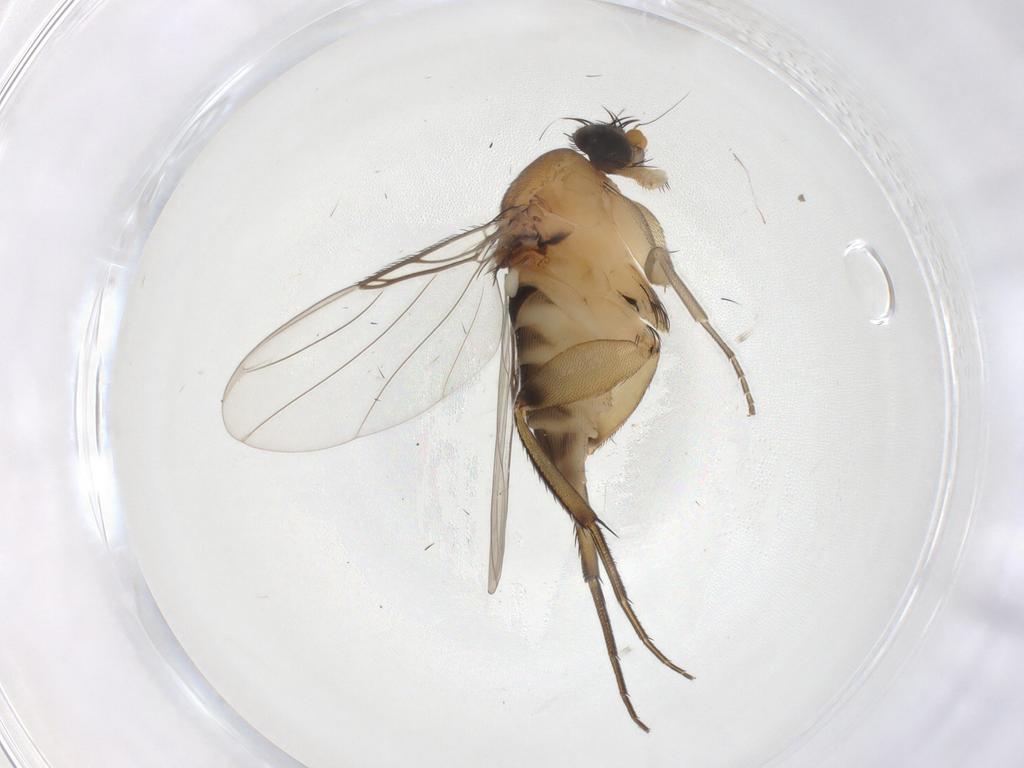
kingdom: Animalia
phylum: Arthropoda
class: Insecta
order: Diptera
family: Phoridae
